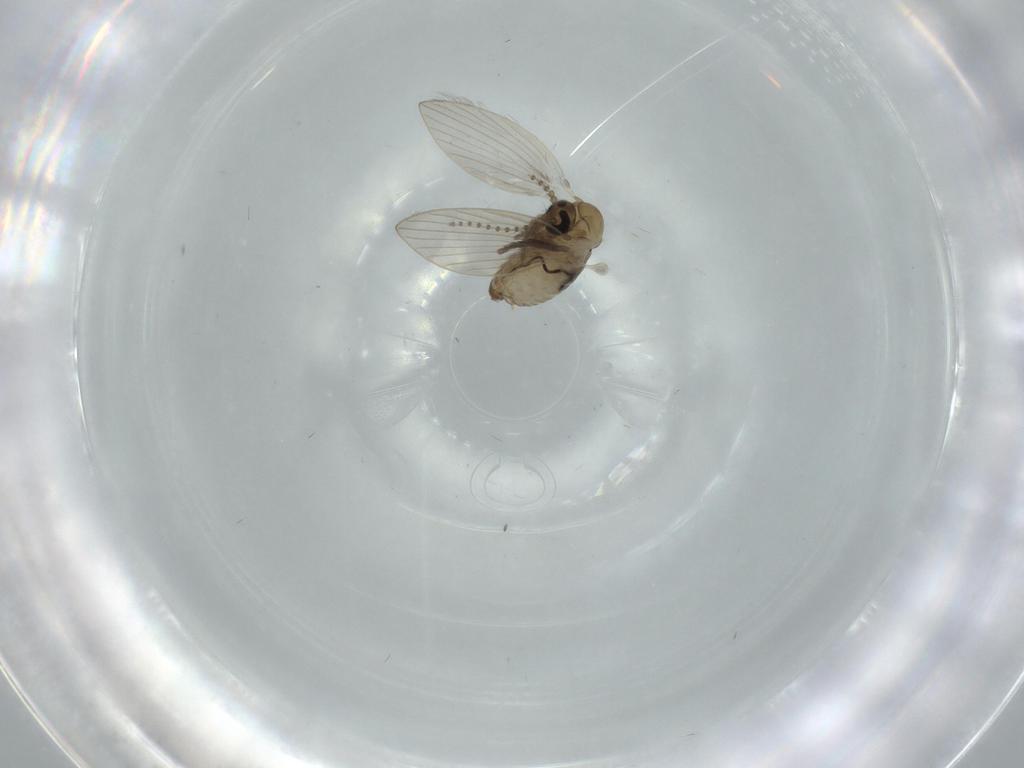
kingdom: Animalia
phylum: Arthropoda
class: Insecta
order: Diptera
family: Psychodidae
